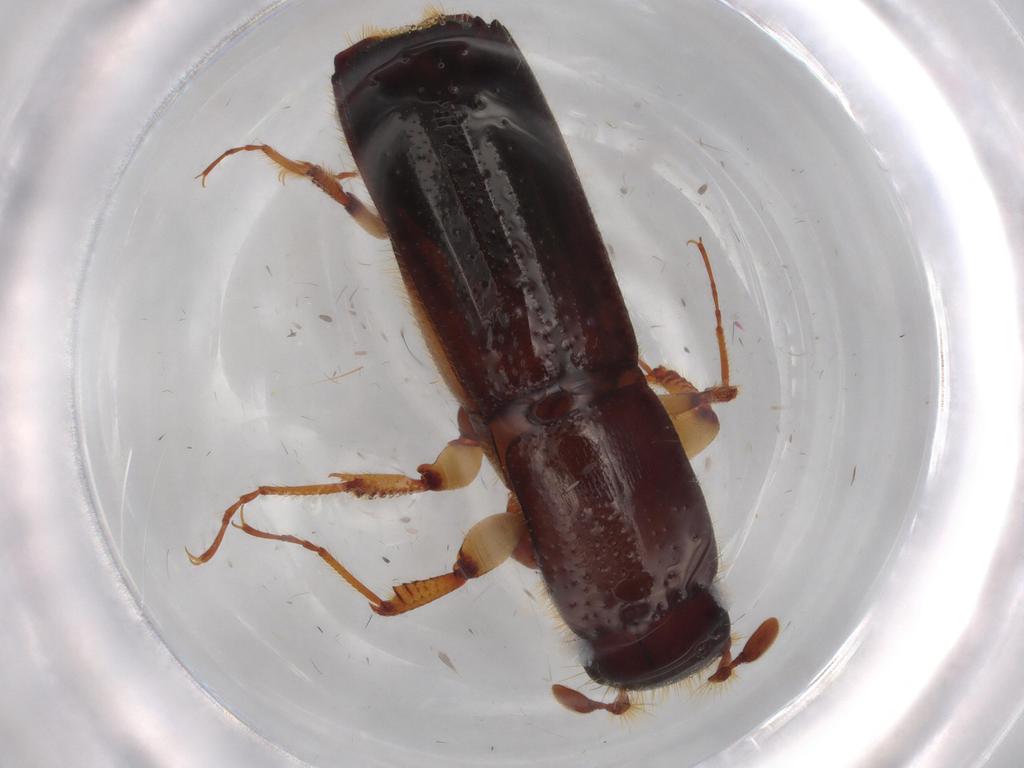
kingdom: Animalia
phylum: Arthropoda
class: Insecta
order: Coleoptera
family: Curculionidae
